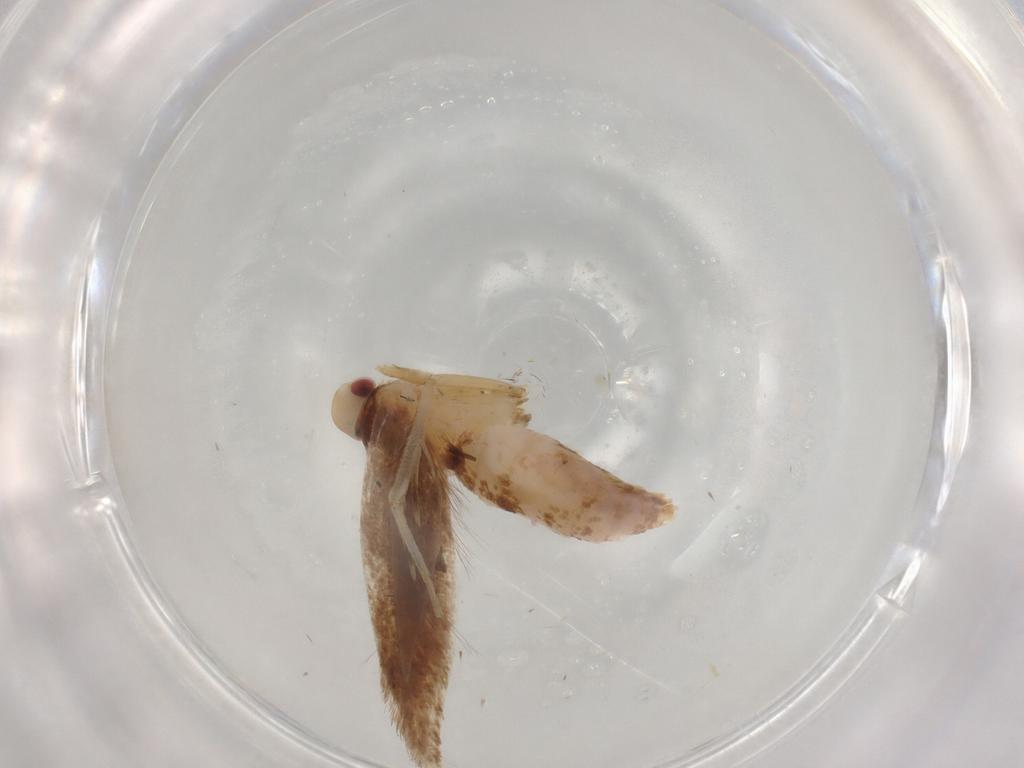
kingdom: Animalia
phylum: Arthropoda
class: Insecta
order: Lepidoptera
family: Cosmopterigidae
